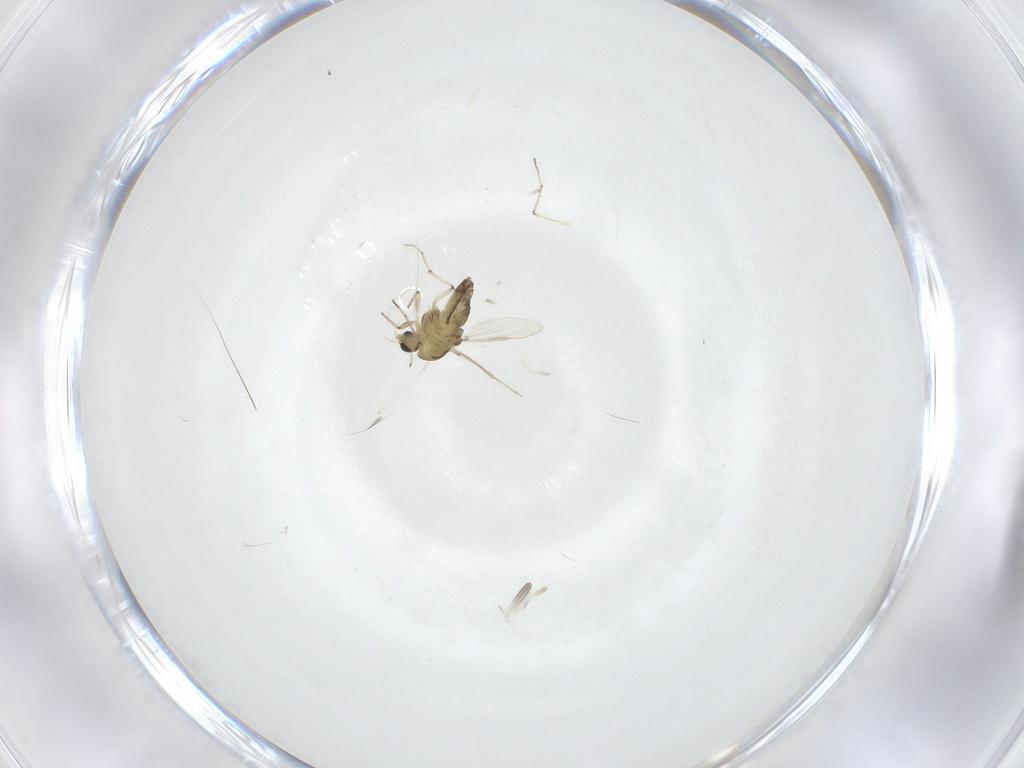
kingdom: Animalia
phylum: Arthropoda
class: Insecta
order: Diptera
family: Chironomidae
